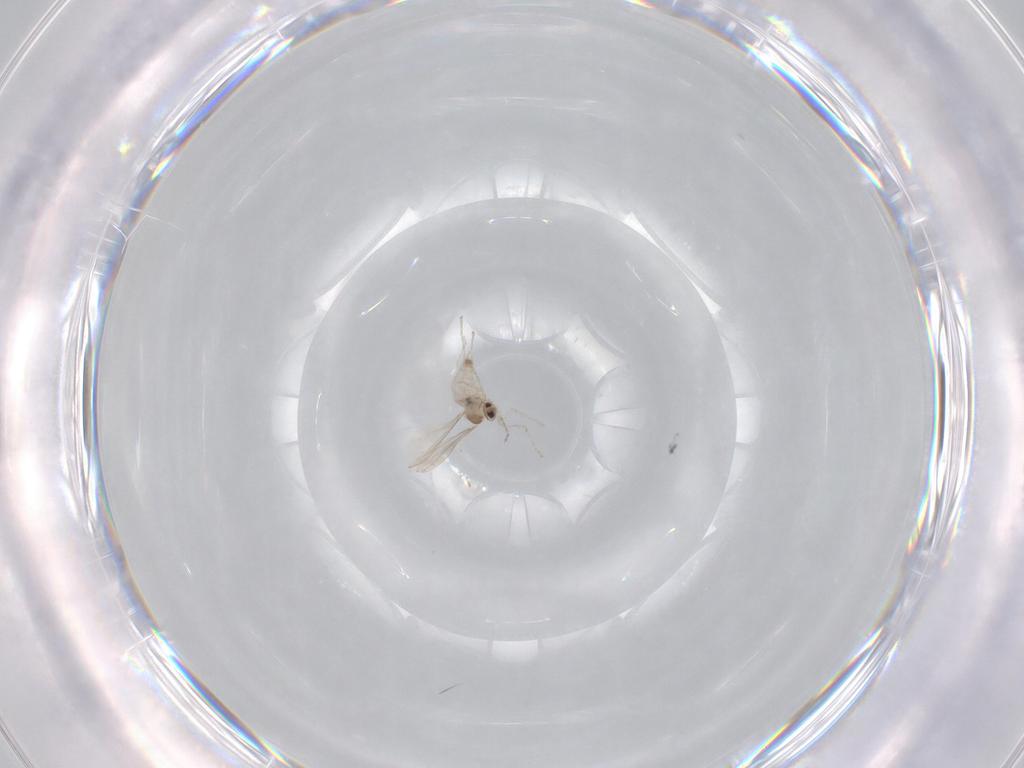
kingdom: Animalia
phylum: Arthropoda
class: Insecta
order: Diptera
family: Cecidomyiidae
